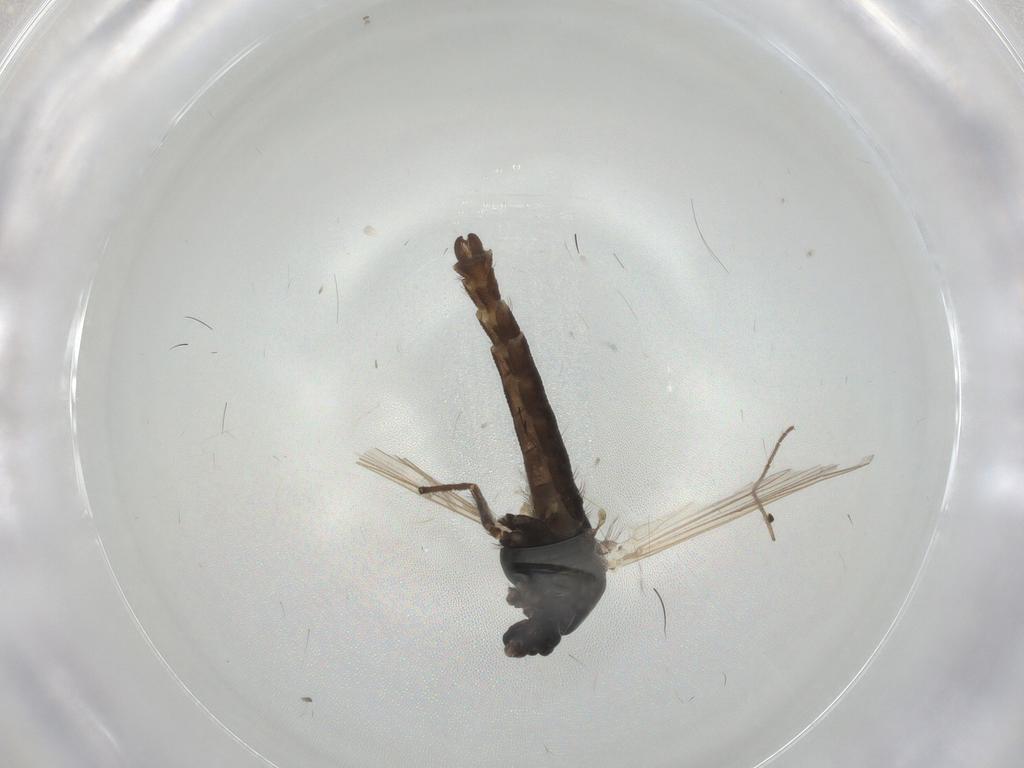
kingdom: Animalia
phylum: Arthropoda
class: Insecta
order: Diptera
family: Sphaeroceridae
